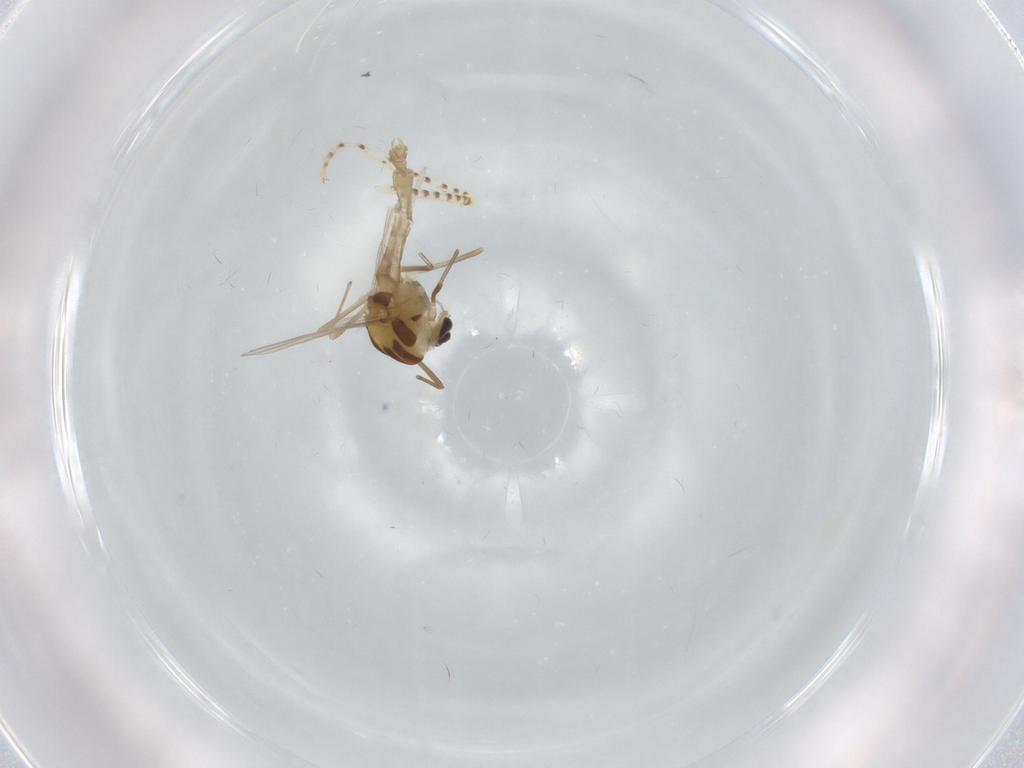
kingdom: Animalia
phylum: Arthropoda
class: Insecta
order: Diptera
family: Chironomidae
